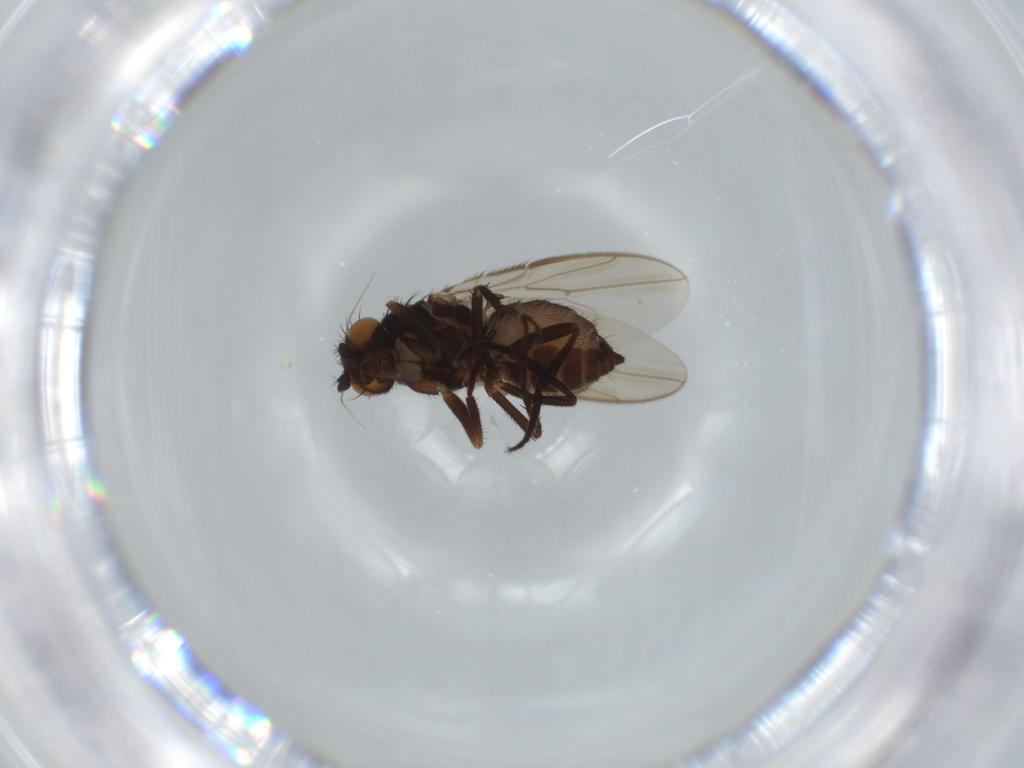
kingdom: Animalia
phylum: Arthropoda
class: Insecta
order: Diptera
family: Sphaeroceridae
